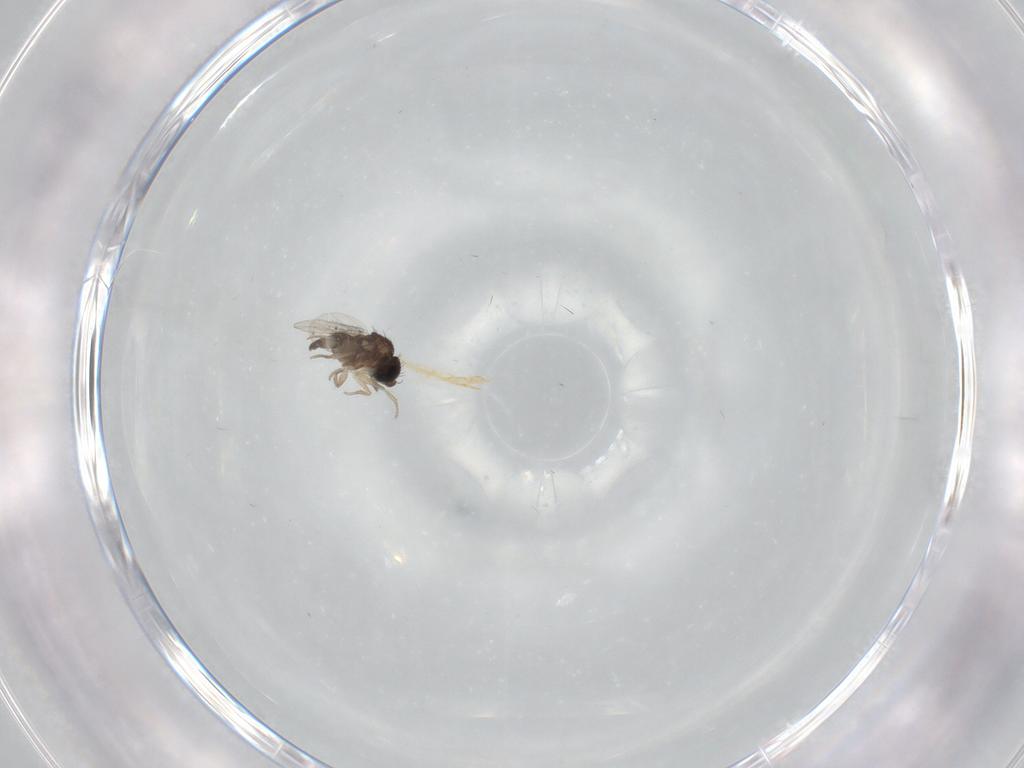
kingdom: Animalia
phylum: Arthropoda
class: Insecta
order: Diptera
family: Phoridae
